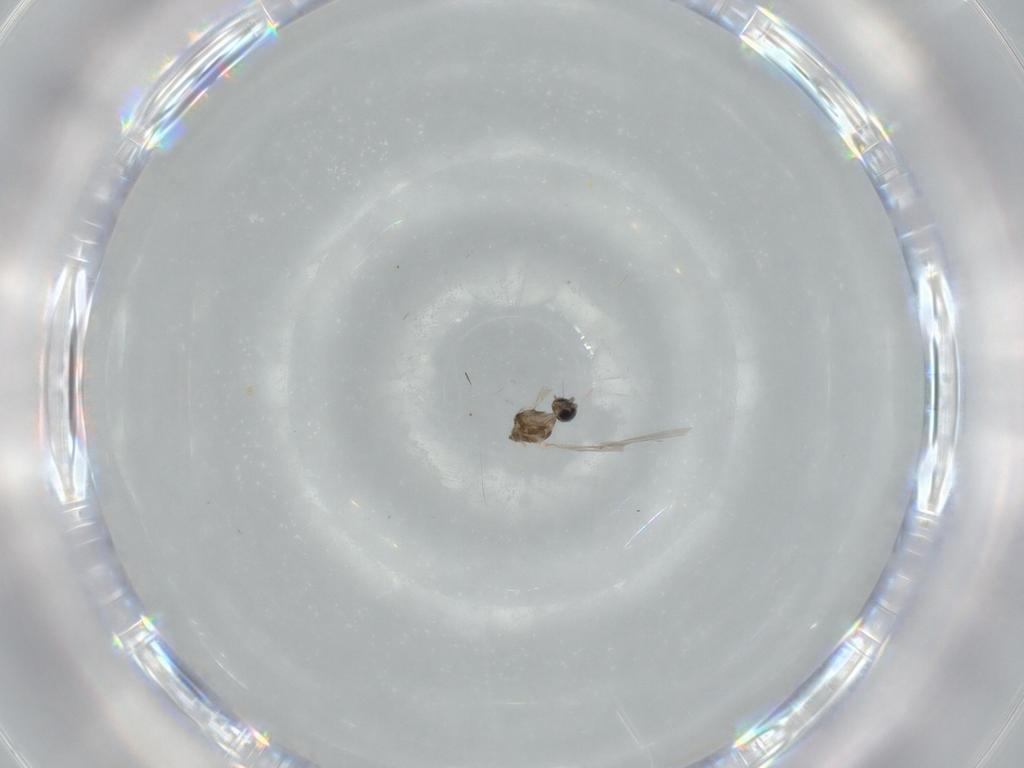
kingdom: Animalia
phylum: Arthropoda
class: Insecta
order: Diptera
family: Cecidomyiidae
